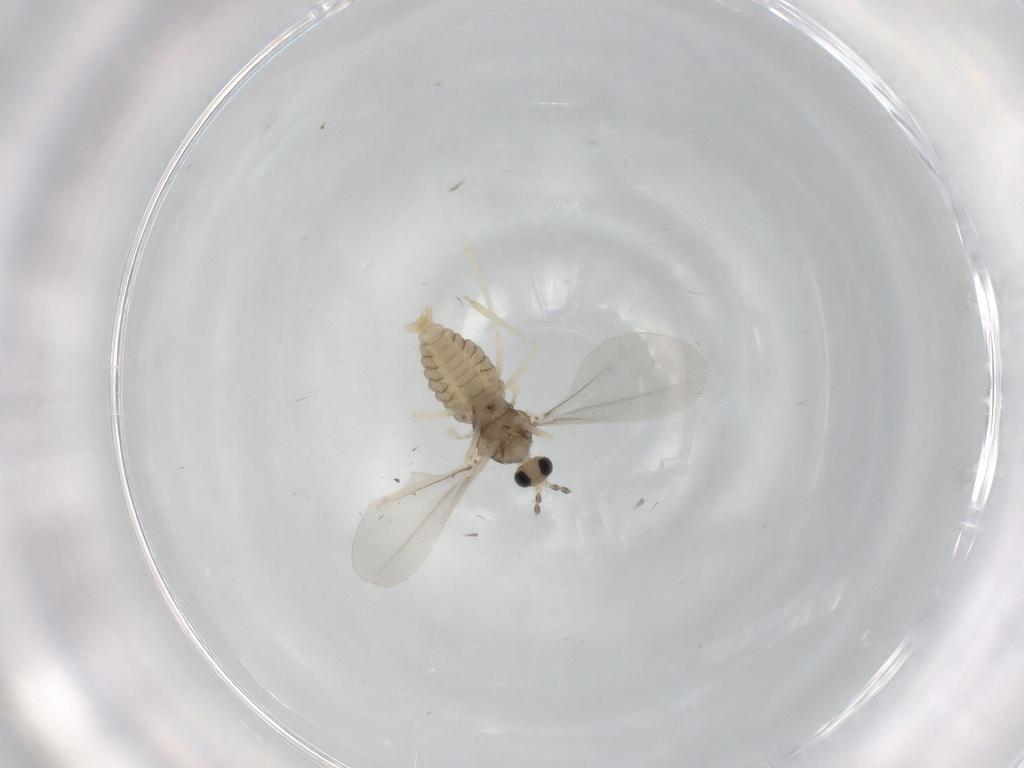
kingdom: Animalia
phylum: Arthropoda
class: Insecta
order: Diptera
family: Cecidomyiidae
